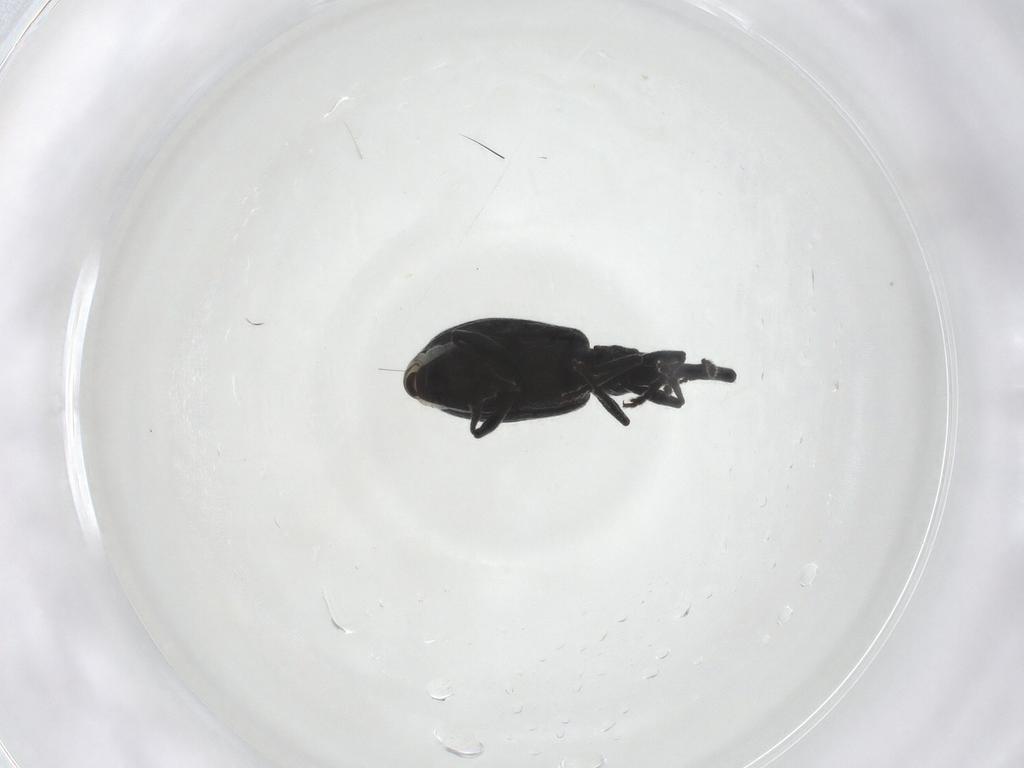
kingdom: Animalia
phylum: Arthropoda
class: Insecta
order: Coleoptera
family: Brentidae
